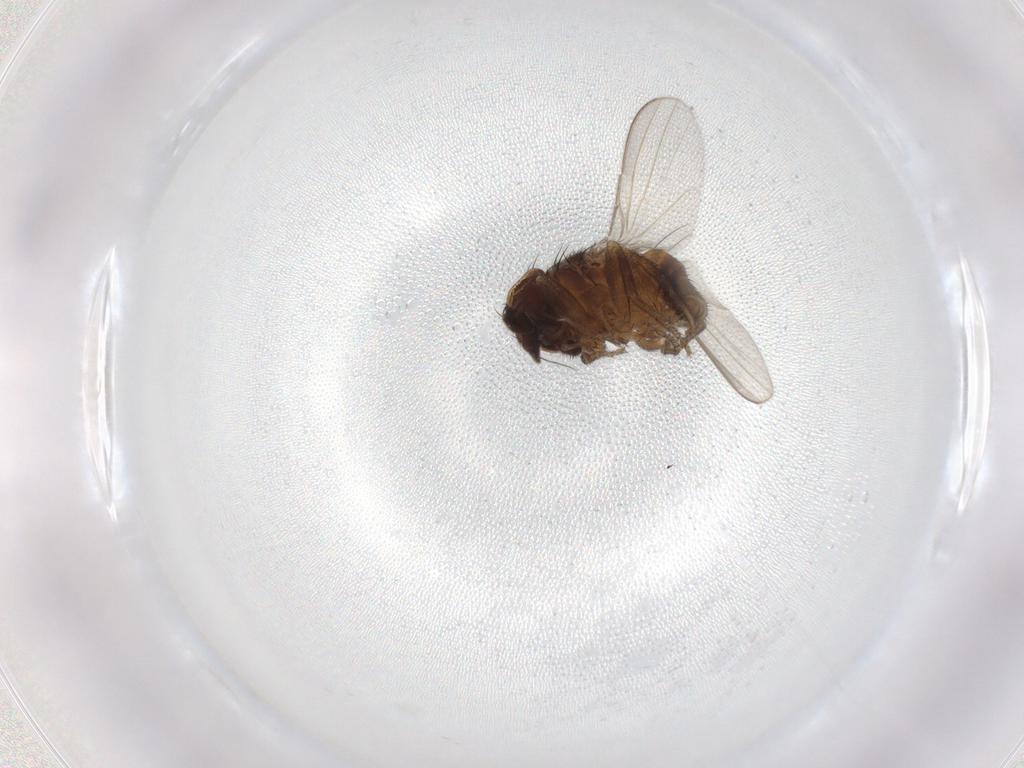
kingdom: Animalia
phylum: Arthropoda
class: Insecta
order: Diptera
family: Milichiidae
